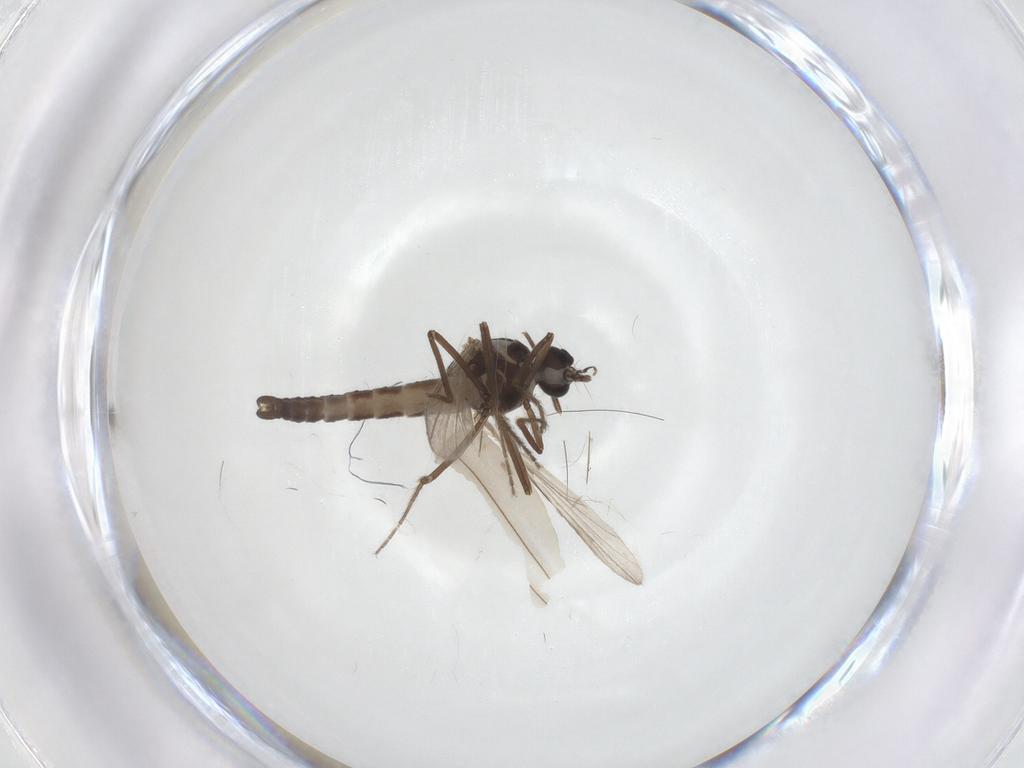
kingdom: Animalia
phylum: Arthropoda
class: Insecta
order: Diptera
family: Ceratopogonidae
